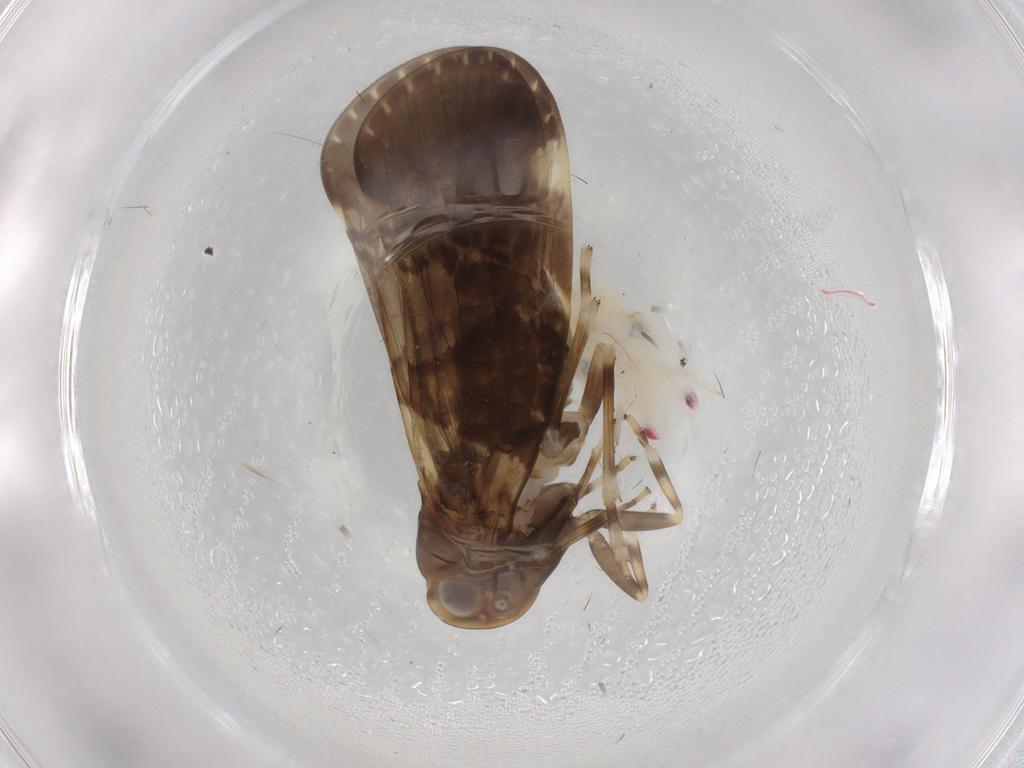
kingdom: Animalia
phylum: Arthropoda
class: Insecta
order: Hemiptera
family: Cixiidae
